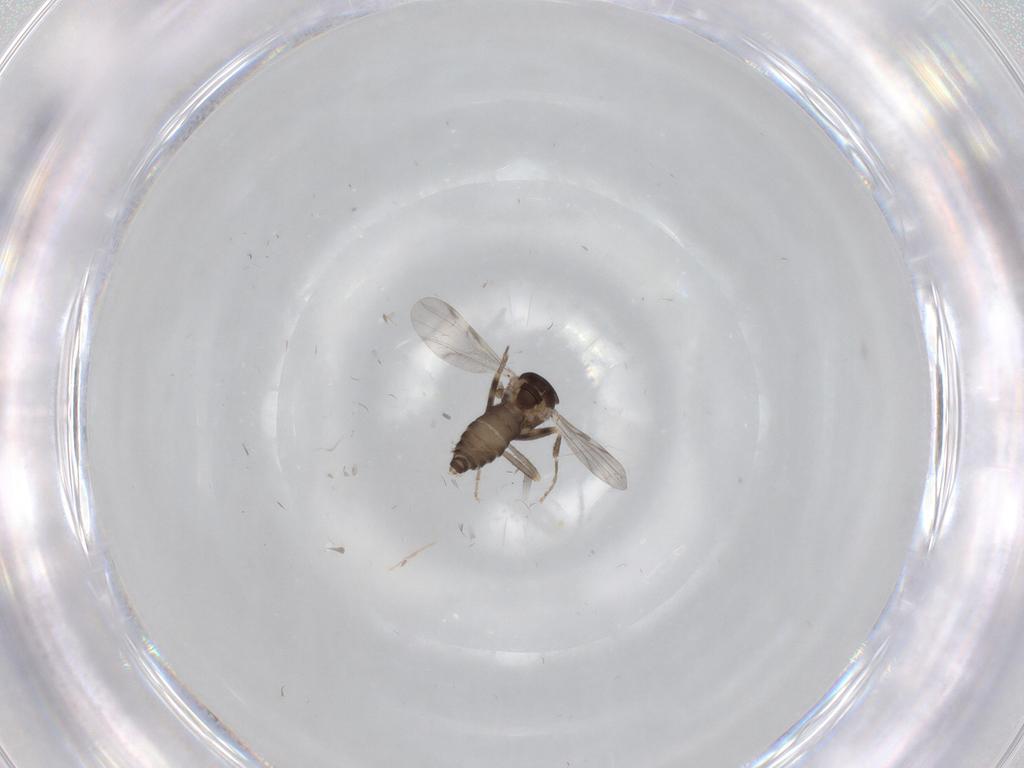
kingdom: Animalia
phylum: Arthropoda
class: Insecta
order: Diptera
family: Ceratopogonidae
